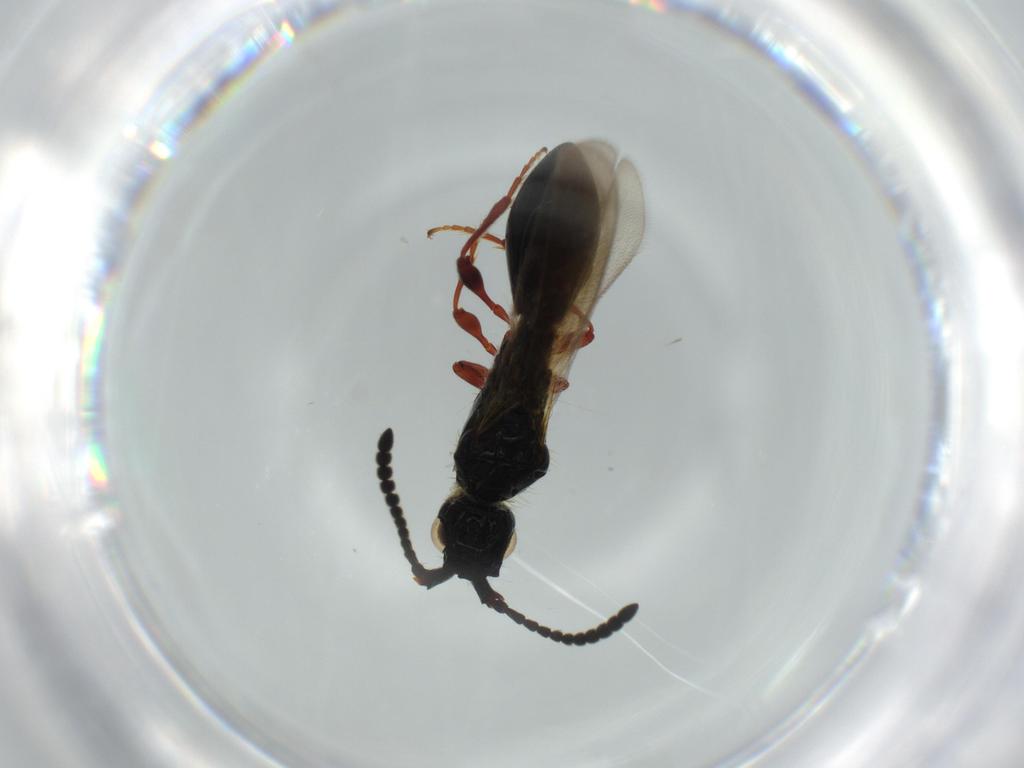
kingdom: Animalia
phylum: Arthropoda
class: Insecta
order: Hymenoptera
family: Diapriidae
